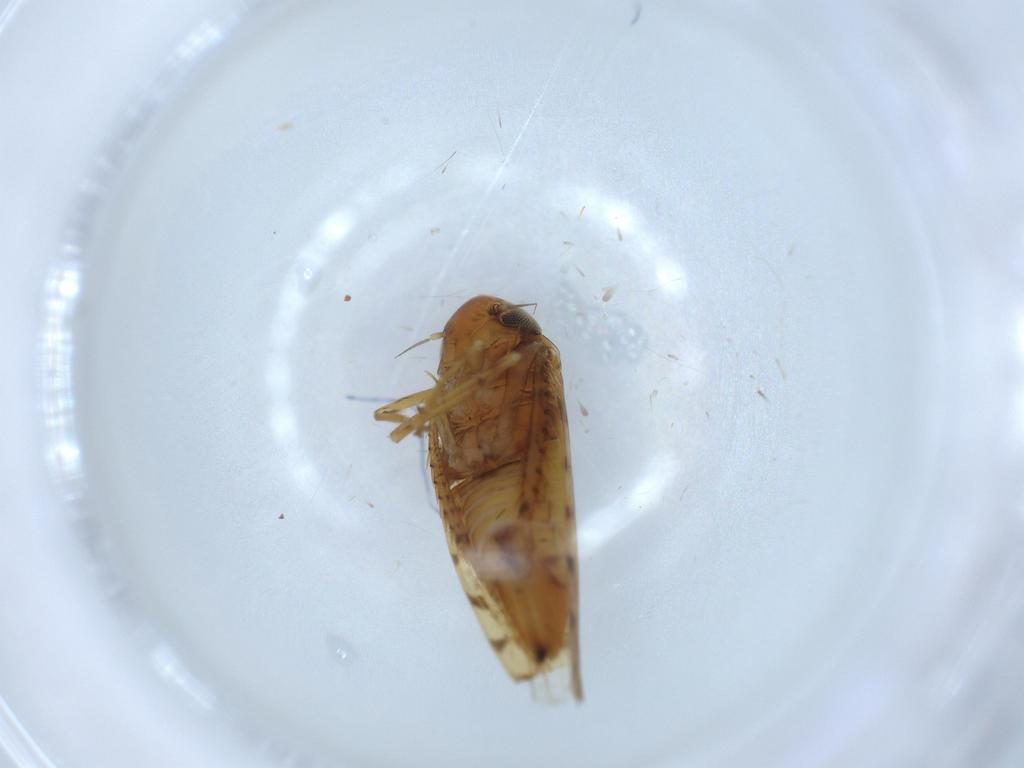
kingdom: Animalia
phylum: Arthropoda
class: Insecta
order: Hemiptera
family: Cicadellidae
